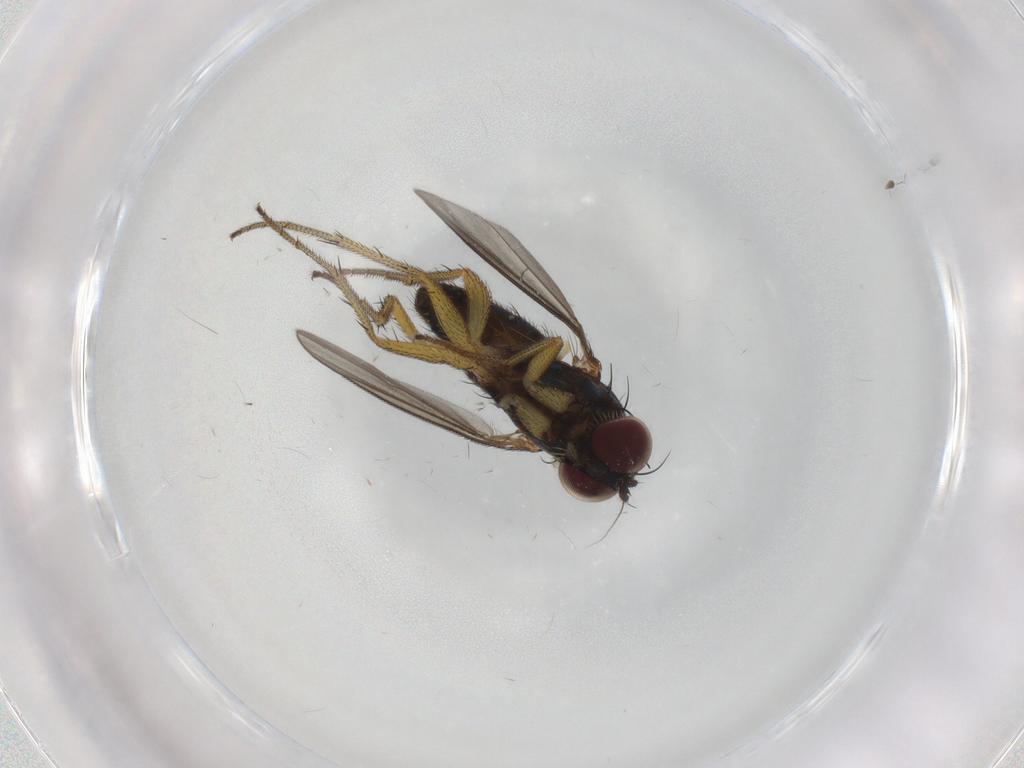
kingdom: Animalia
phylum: Arthropoda
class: Insecta
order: Diptera
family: Dolichopodidae
